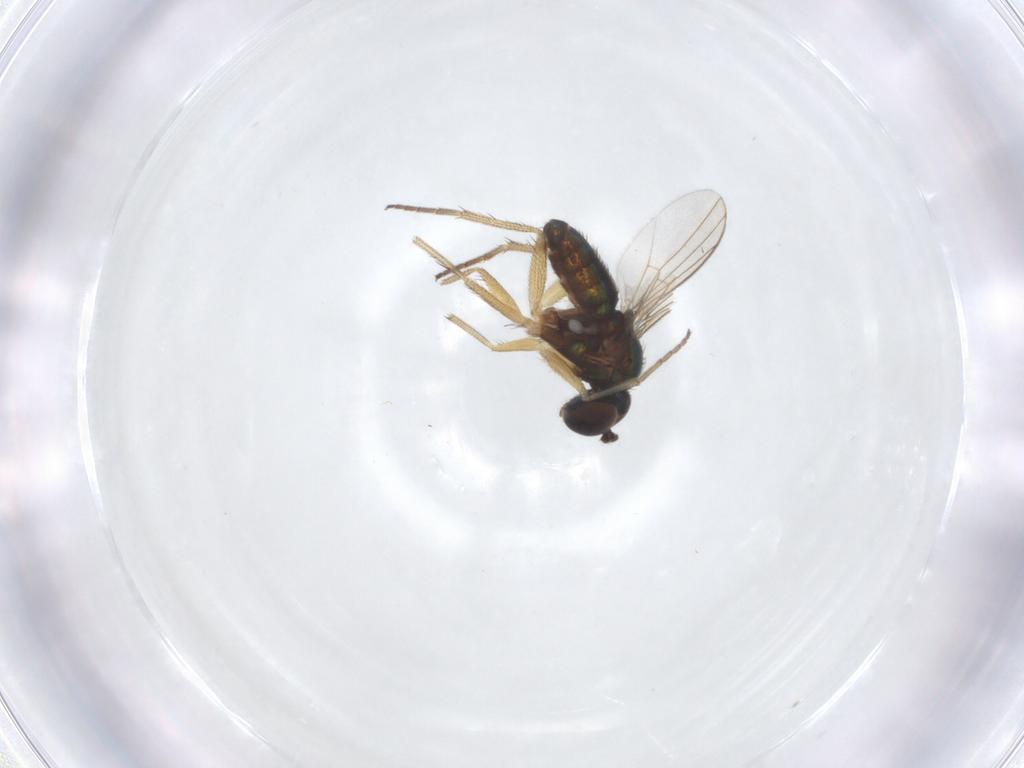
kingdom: Animalia
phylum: Arthropoda
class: Insecta
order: Diptera
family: Dolichopodidae
